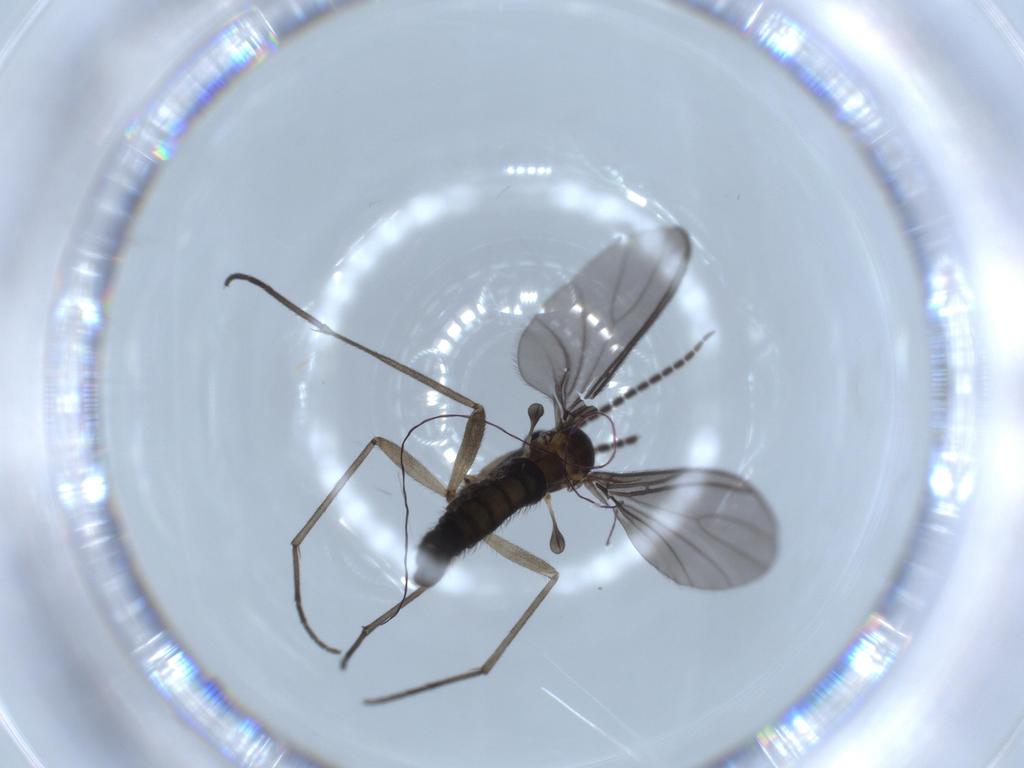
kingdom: Animalia
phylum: Arthropoda
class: Insecta
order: Diptera
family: Sciaridae
